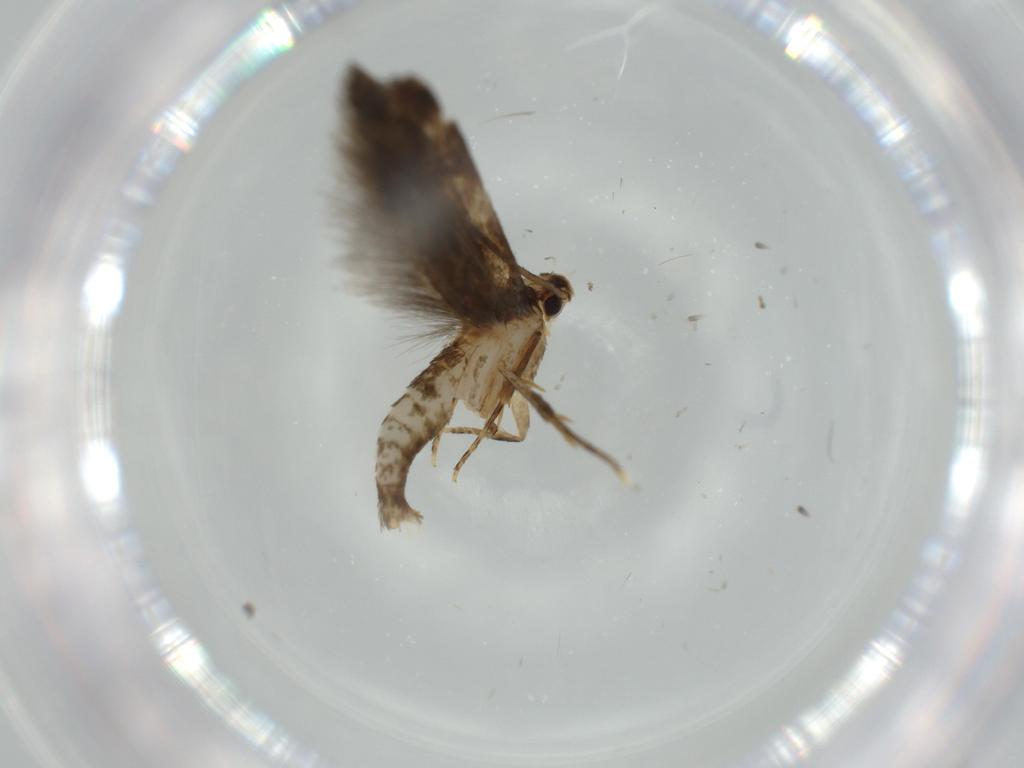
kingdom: Animalia
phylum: Arthropoda
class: Insecta
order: Lepidoptera
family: Tineidae
